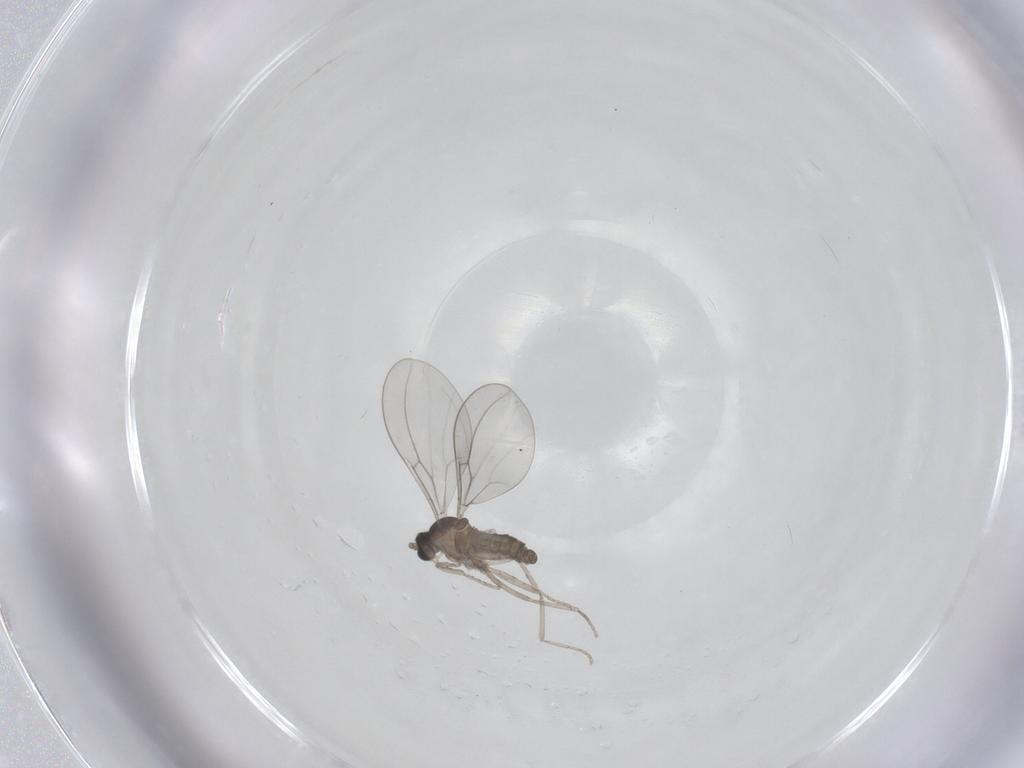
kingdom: Animalia
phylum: Arthropoda
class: Insecta
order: Diptera
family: Cecidomyiidae
